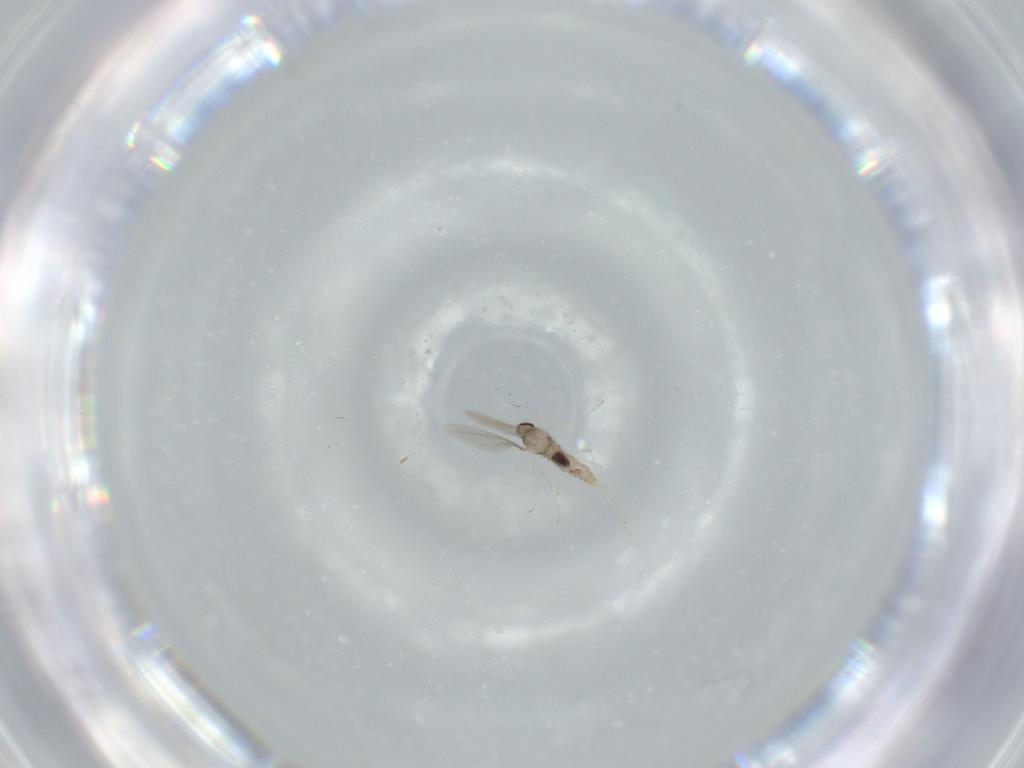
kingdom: Animalia
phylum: Arthropoda
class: Insecta
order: Diptera
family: Cecidomyiidae
